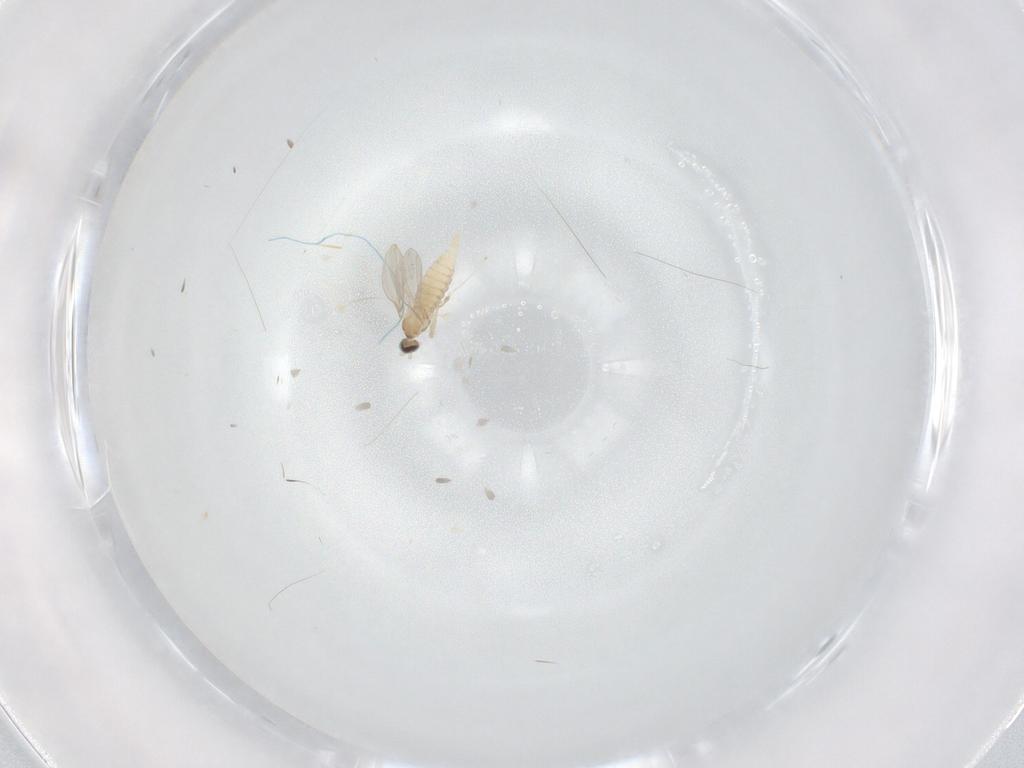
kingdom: Animalia
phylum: Arthropoda
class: Insecta
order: Diptera
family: Cecidomyiidae
